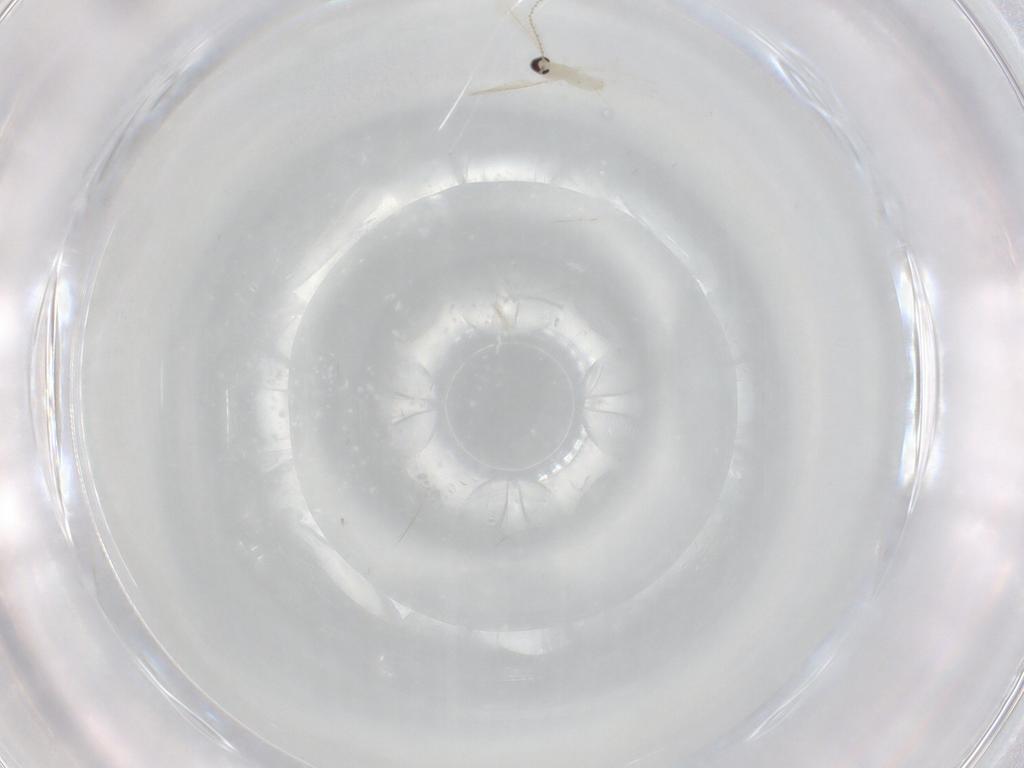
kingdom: Animalia
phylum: Arthropoda
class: Insecta
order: Diptera
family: Cecidomyiidae
